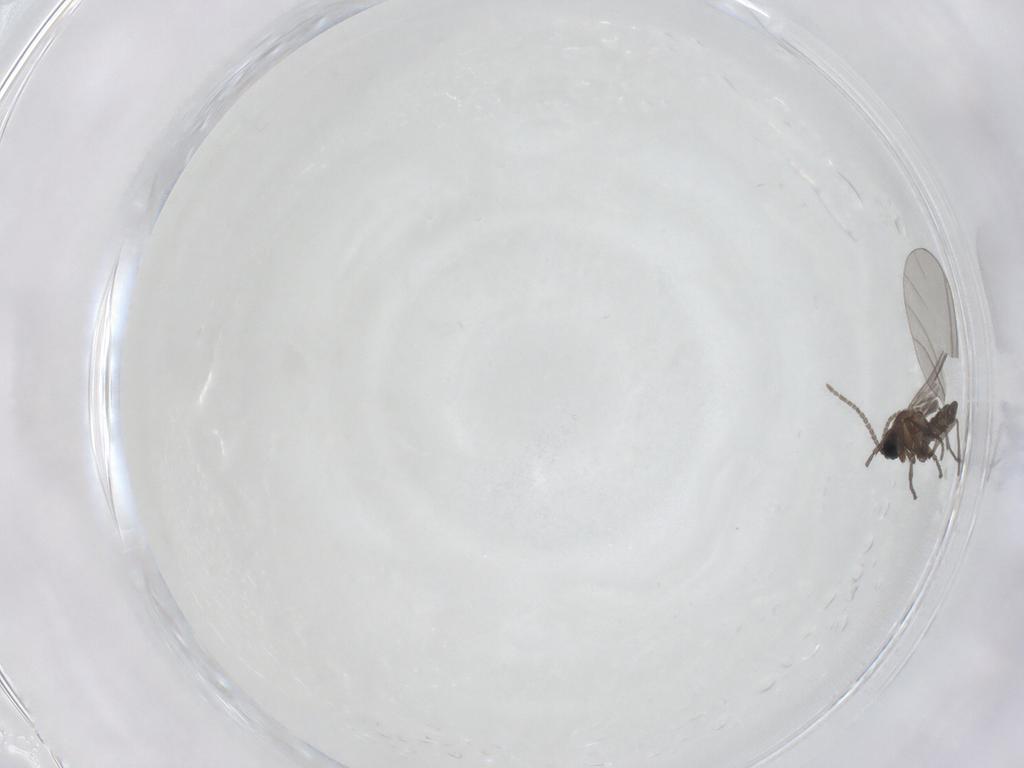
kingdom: Animalia
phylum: Arthropoda
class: Insecta
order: Diptera
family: Sciaridae
